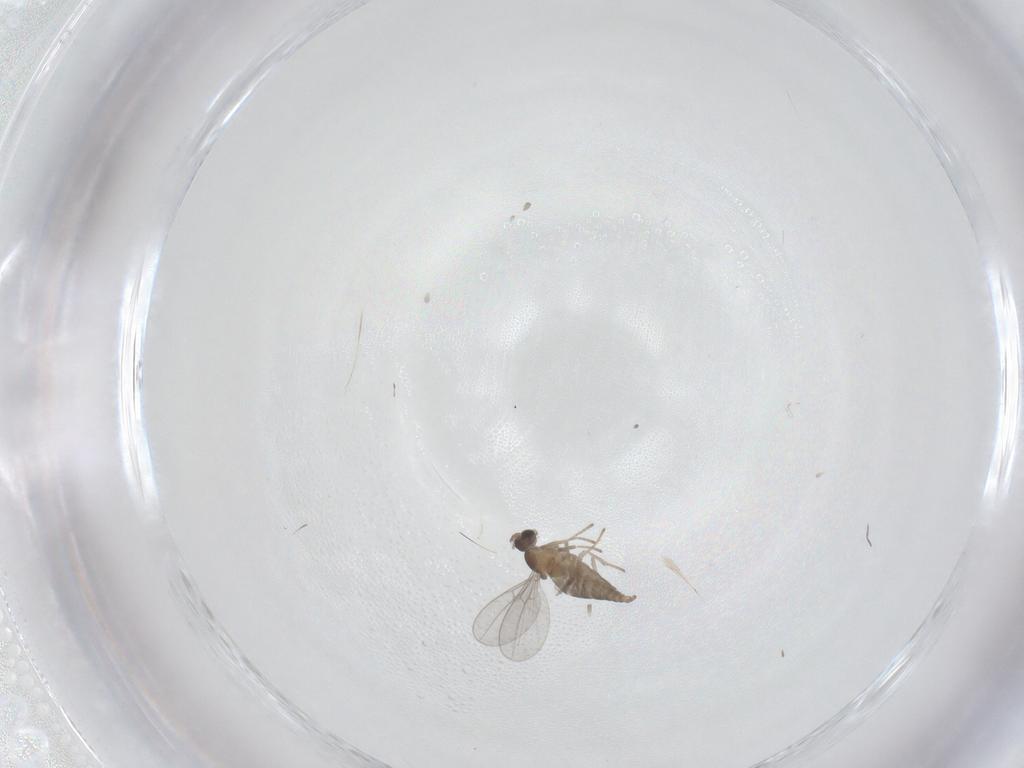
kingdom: Animalia
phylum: Arthropoda
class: Insecta
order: Diptera
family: Cecidomyiidae
